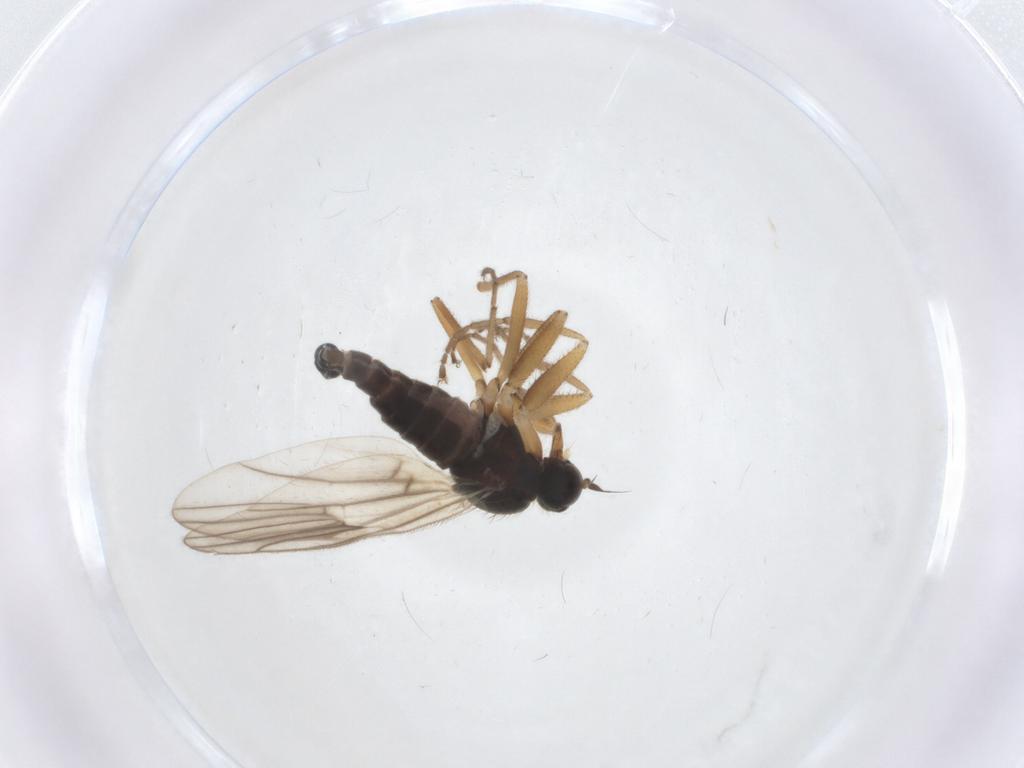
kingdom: Animalia
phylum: Arthropoda
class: Insecta
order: Diptera
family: Hybotidae
